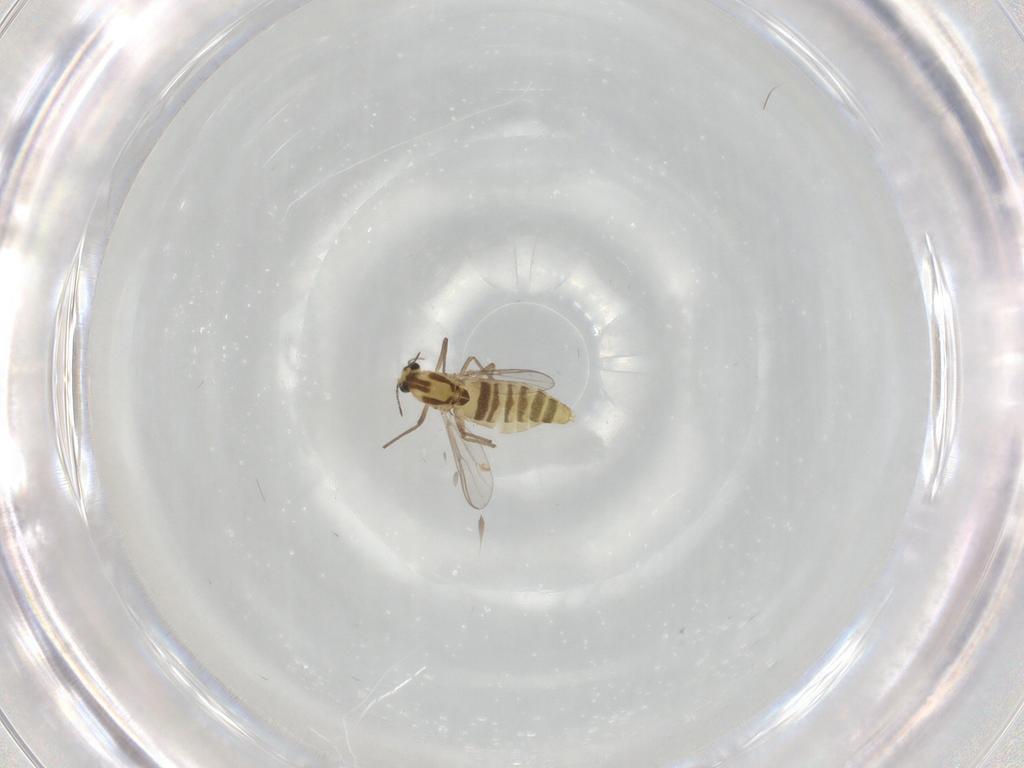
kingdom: Animalia
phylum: Arthropoda
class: Insecta
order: Diptera
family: Chironomidae
